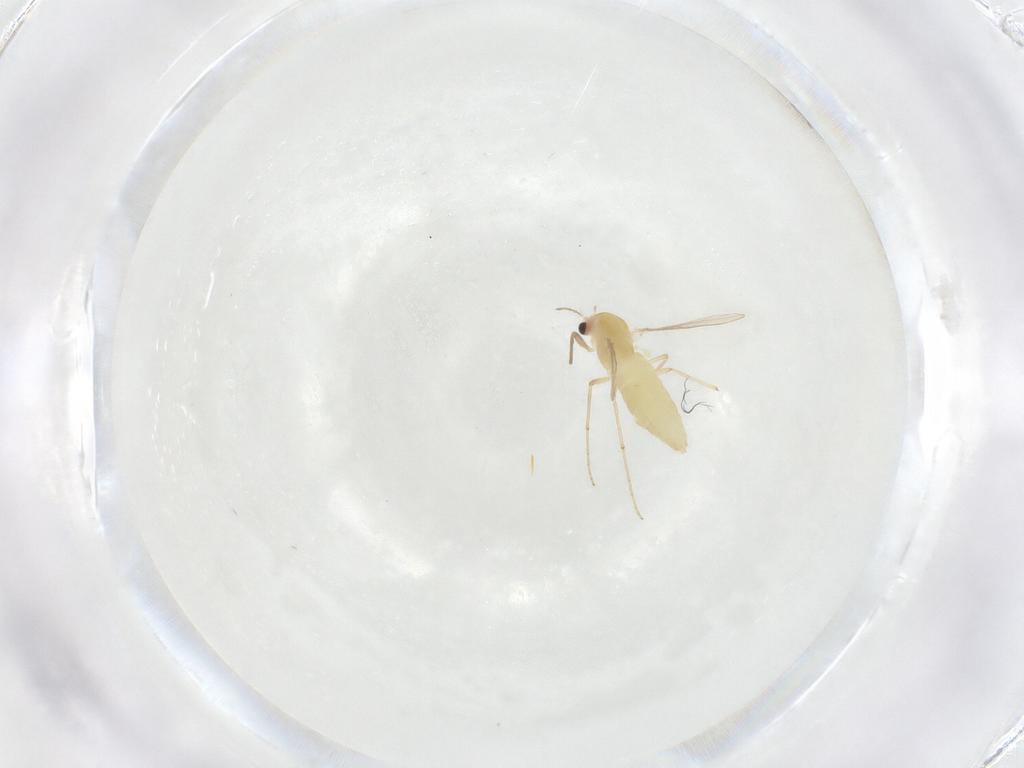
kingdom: Animalia
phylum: Arthropoda
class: Insecta
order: Diptera
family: Chironomidae
